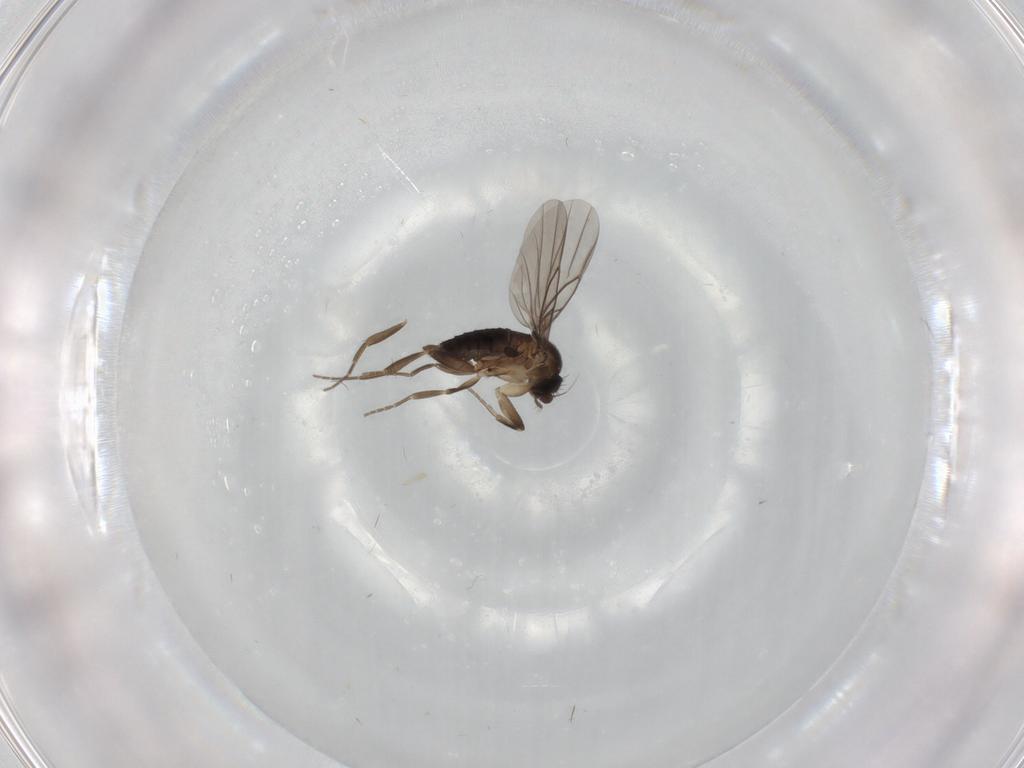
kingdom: Animalia
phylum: Arthropoda
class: Insecta
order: Diptera
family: Phoridae
